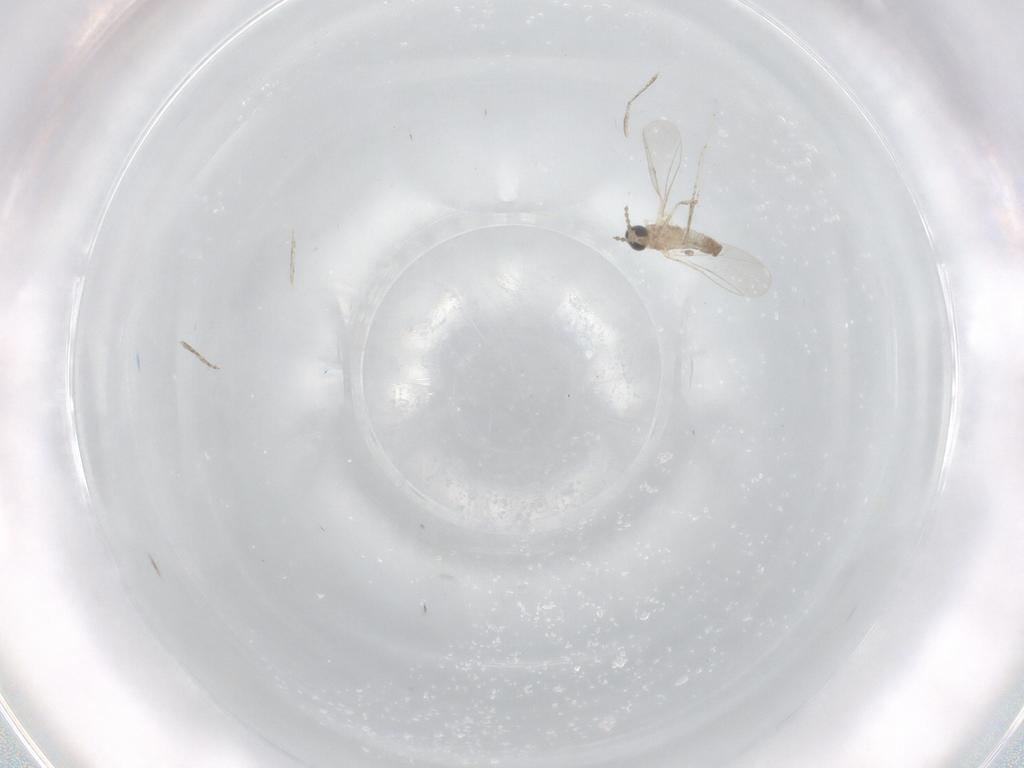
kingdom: Animalia
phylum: Arthropoda
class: Insecta
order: Diptera
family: Cecidomyiidae
